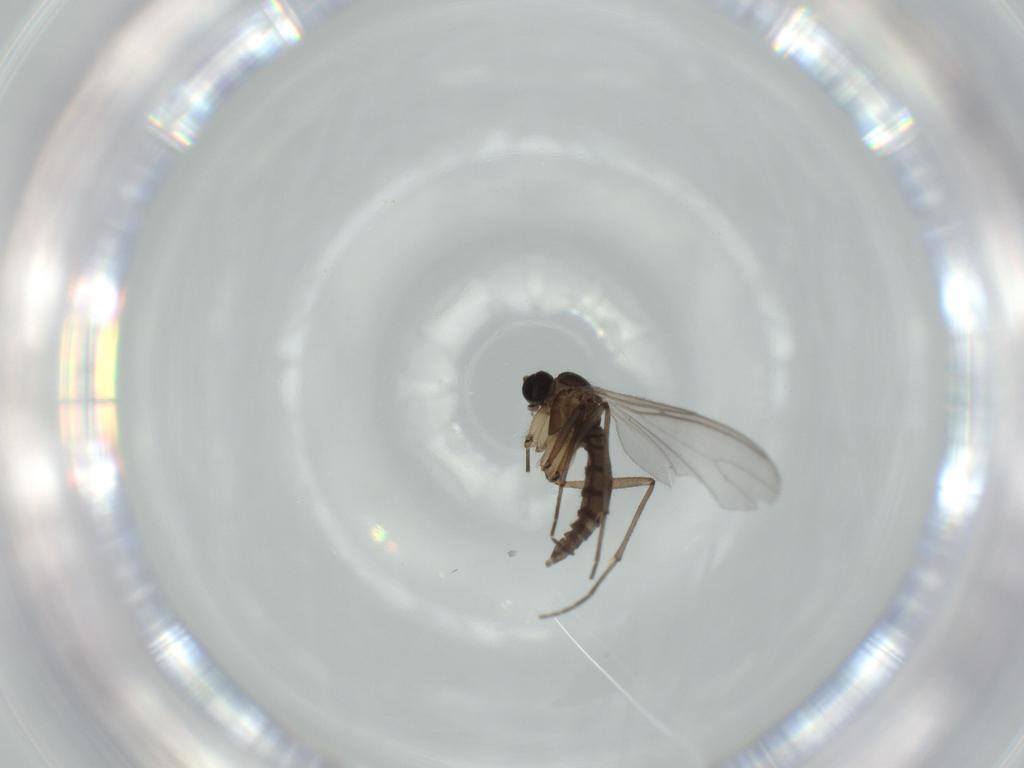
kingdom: Animalia
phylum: Arthropoda
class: Insecta
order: Diptera
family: Sciaridae
